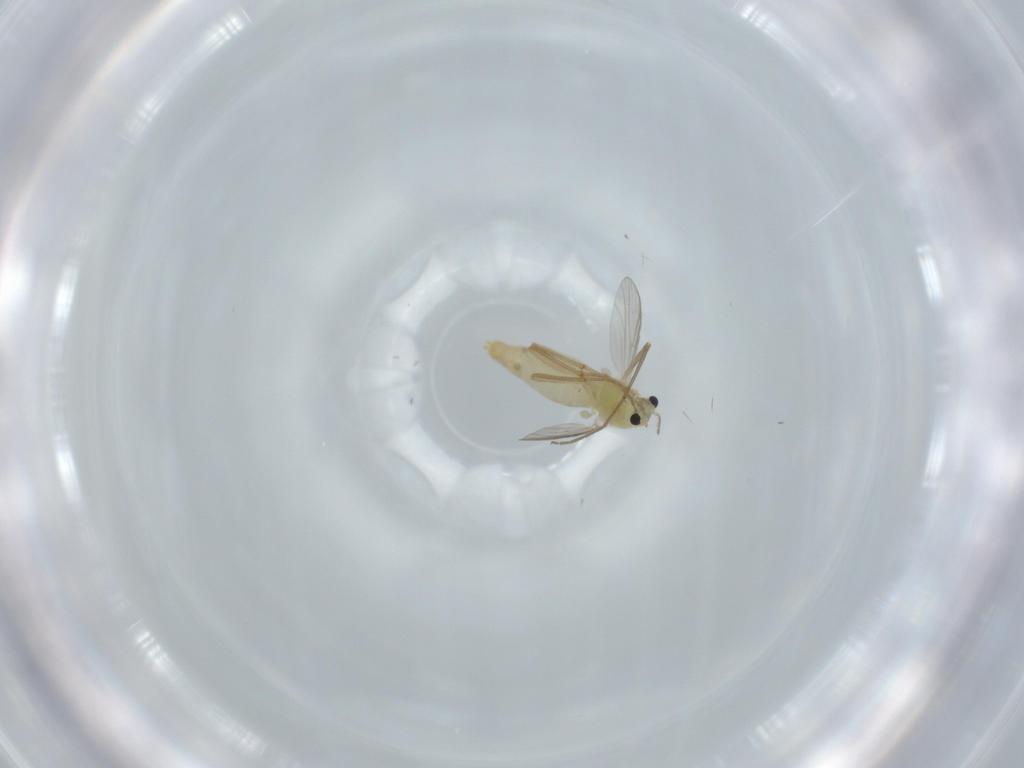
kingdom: Animalia
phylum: Arthropoda
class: Insecta
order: Diptera
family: Chironomidae
